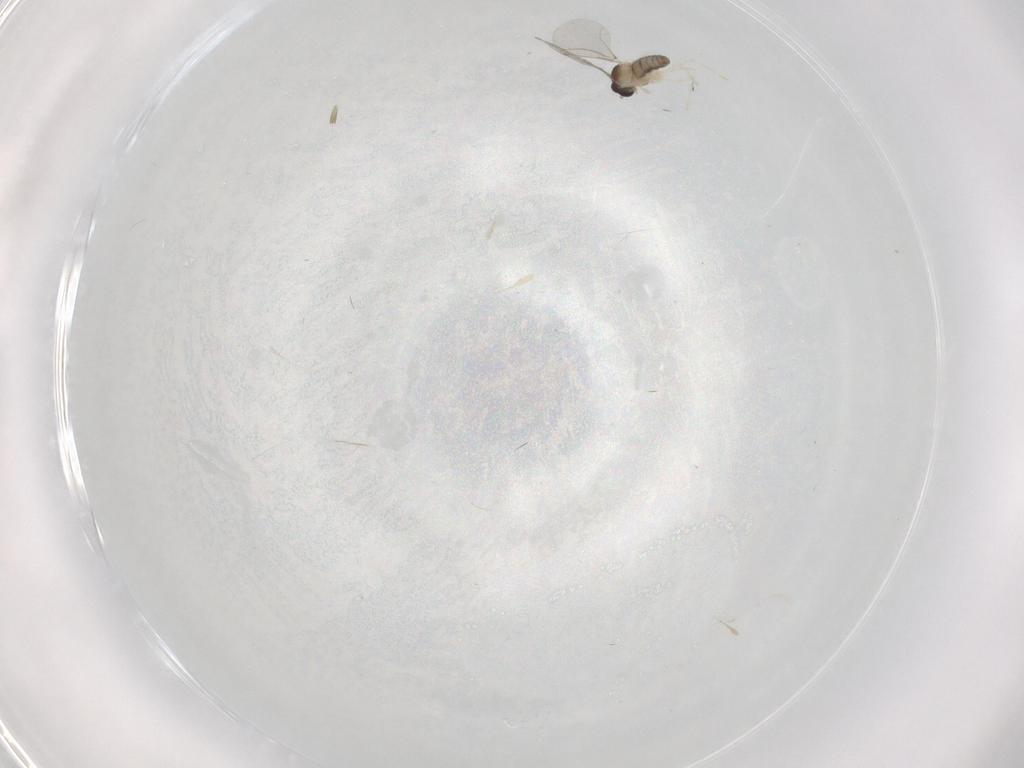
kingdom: Animalia
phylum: Arthropoda
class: Insecta
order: Diptera
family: Cecidomyiidae
